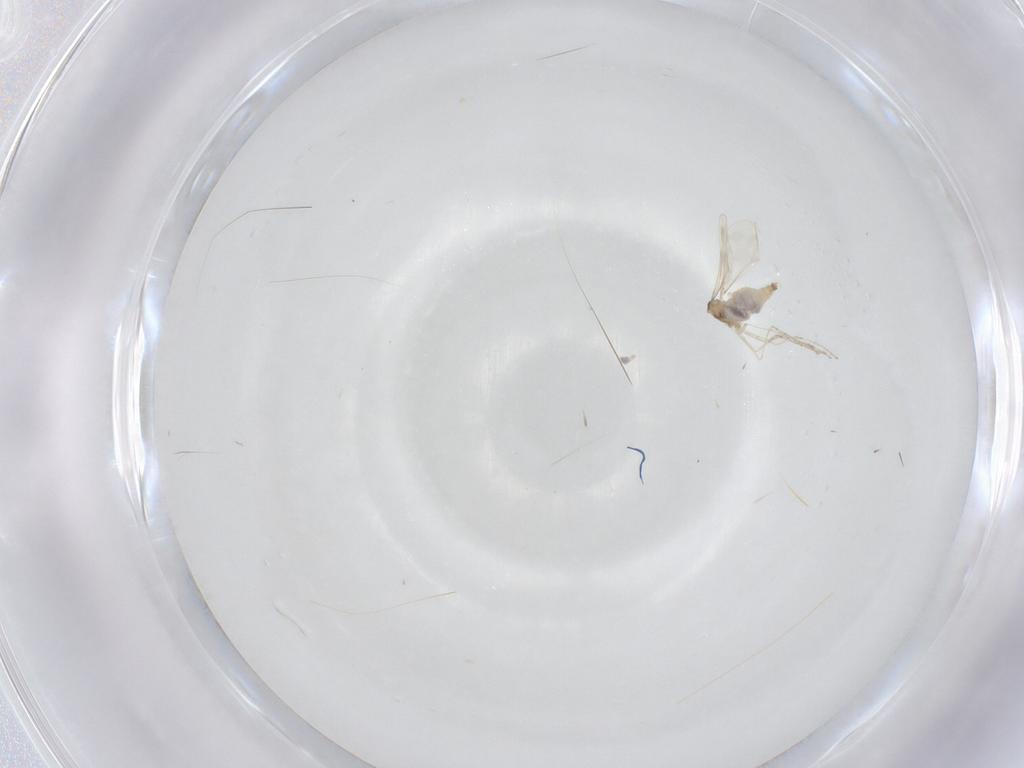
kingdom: Animalia
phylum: Arthropoda
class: Insecta
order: Diptera
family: Cecidomyiidae
